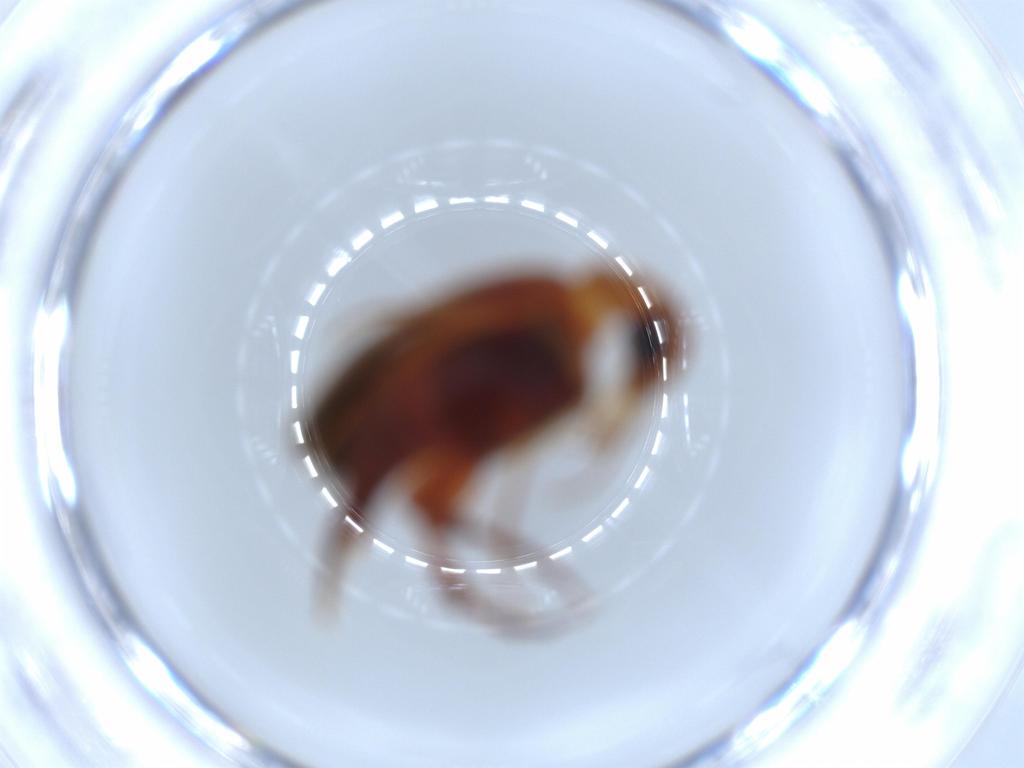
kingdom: Animalia
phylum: Arthropoda
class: Insecta
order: Coleoptera
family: Mordellidae
